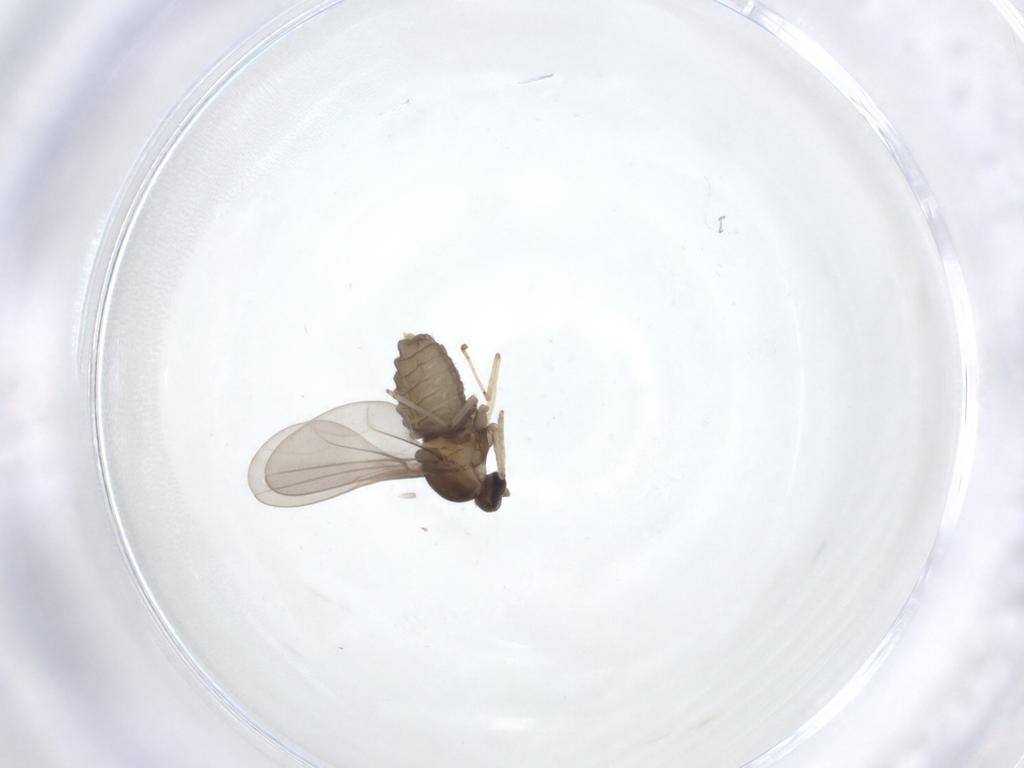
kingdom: Animalia
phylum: Arthropoda
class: Insecta
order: Diptera
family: Cecidomyiidae
